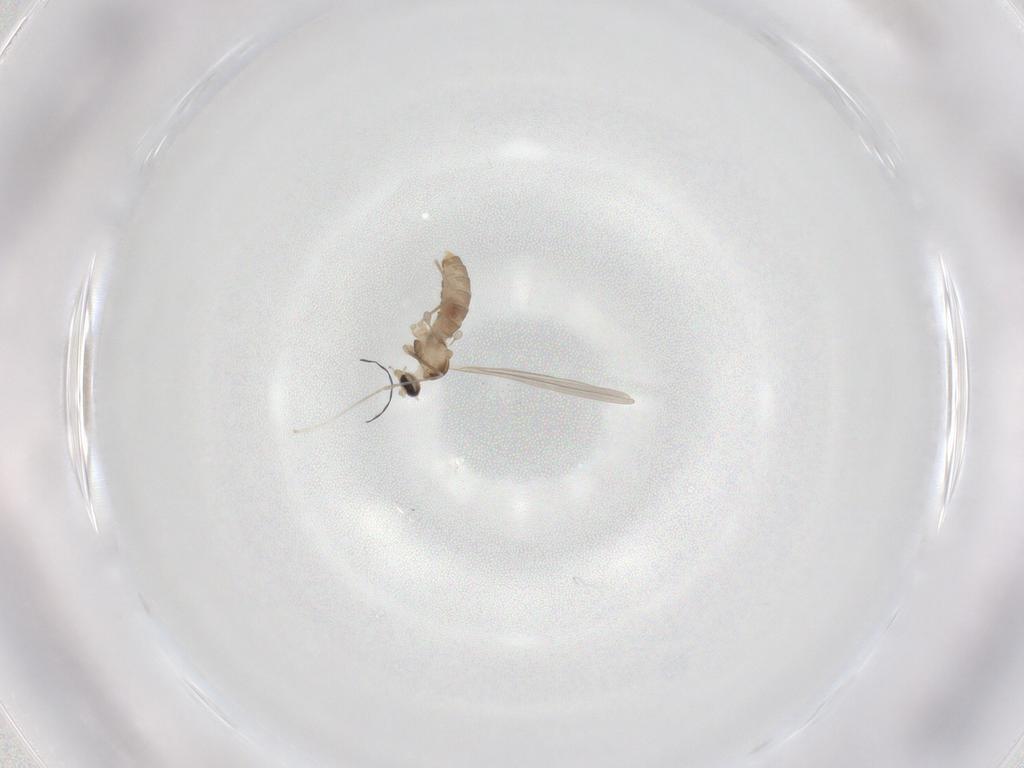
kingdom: Animalia
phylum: Arthropoda
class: Insecta
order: Diptera
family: Cecidomyiidae
